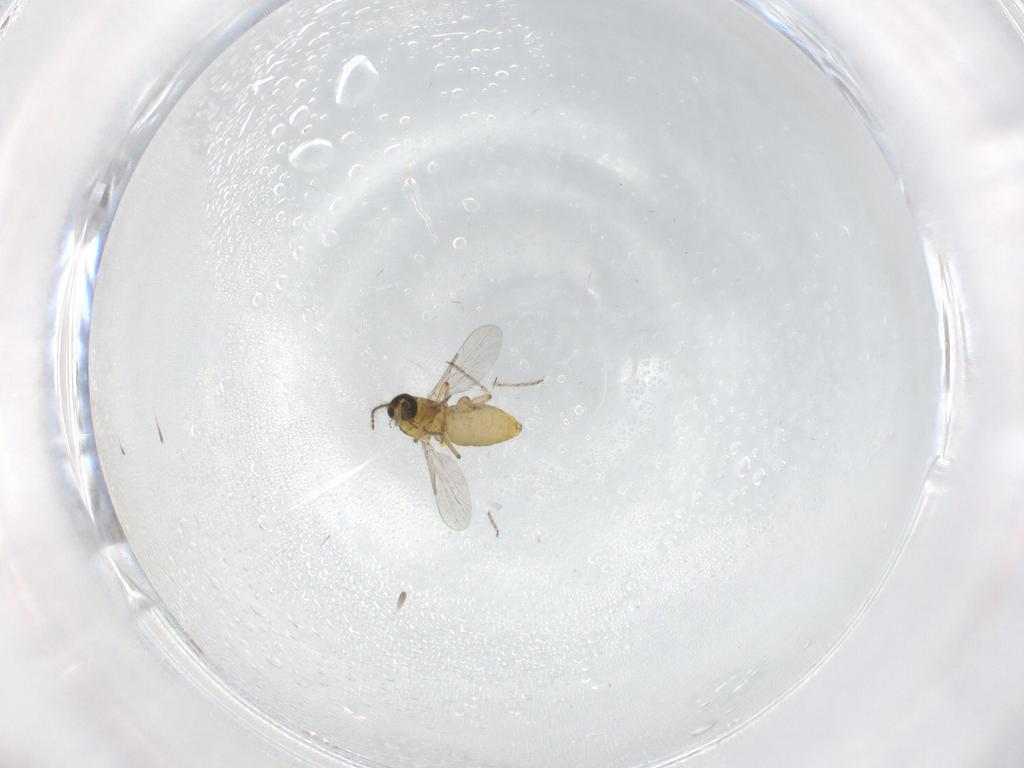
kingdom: Animalia
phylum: Arthropoda
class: Insecta
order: Diptera
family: Ceratopogonidae
